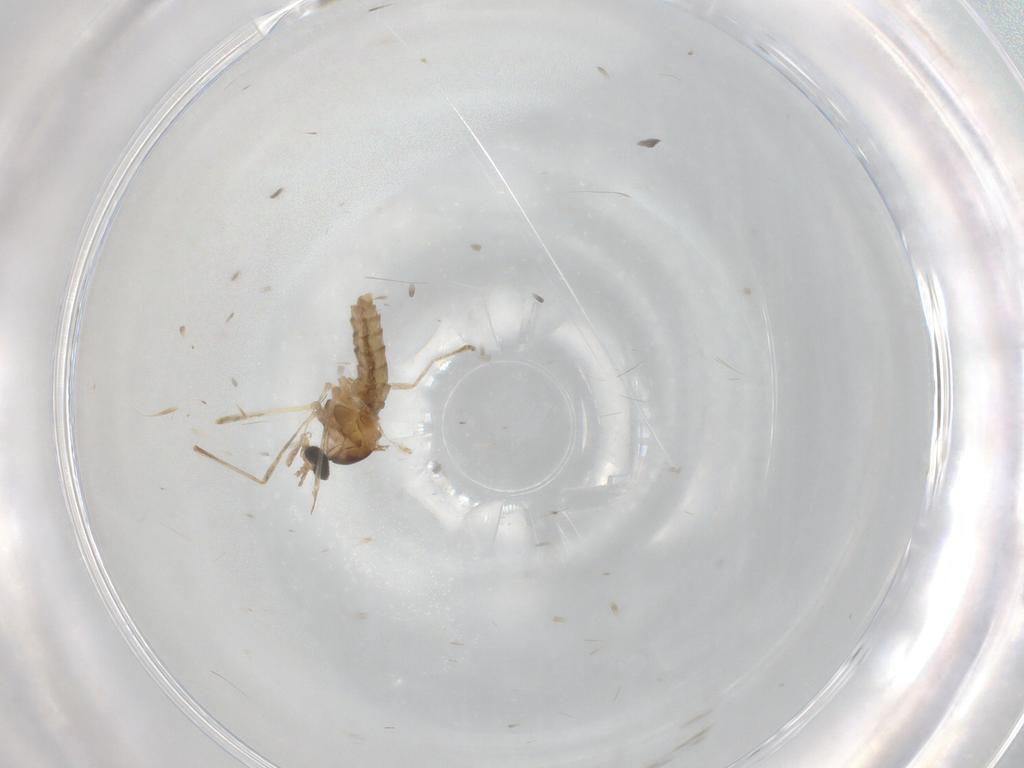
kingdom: Animalia
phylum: Arthropoda
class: Insecta
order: Diptera
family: Cecidomyiidae
